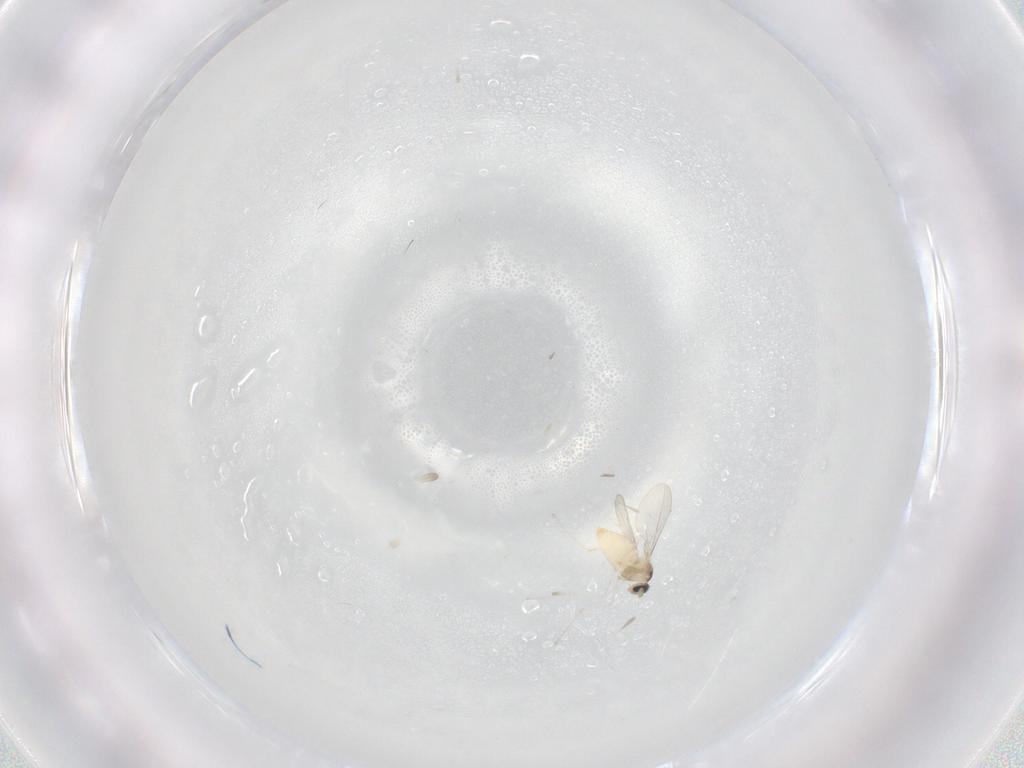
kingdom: Animalia
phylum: Arthropoda
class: Insecta
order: Diptera
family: Cecidomyiidae
